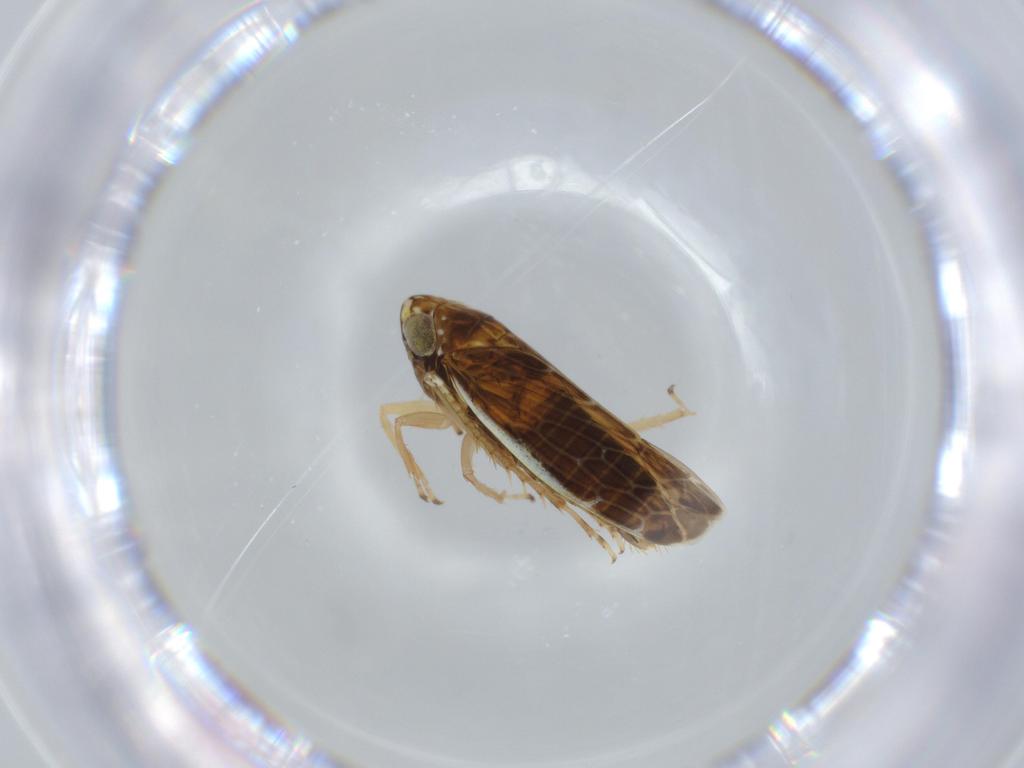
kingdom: Animalia
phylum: Arthropoda
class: Insecta
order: Hemiptera
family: Cicadellidae
